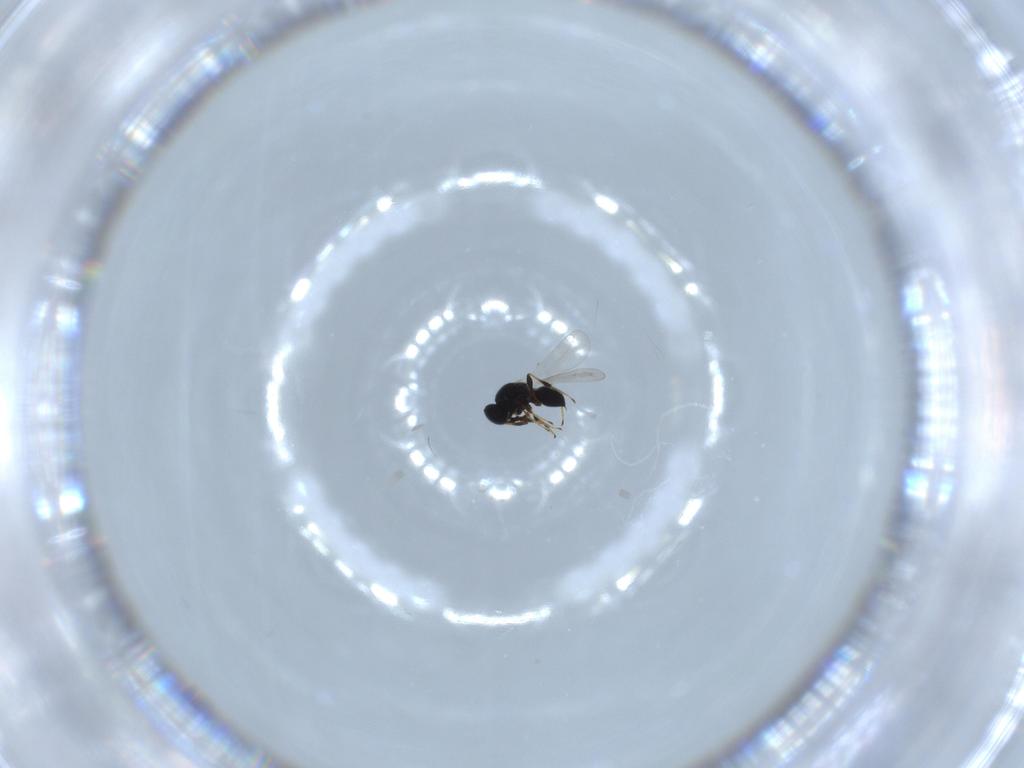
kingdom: Animalia
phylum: Arthropoda
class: Insecta
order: Hymenoptera
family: Platygastridae
